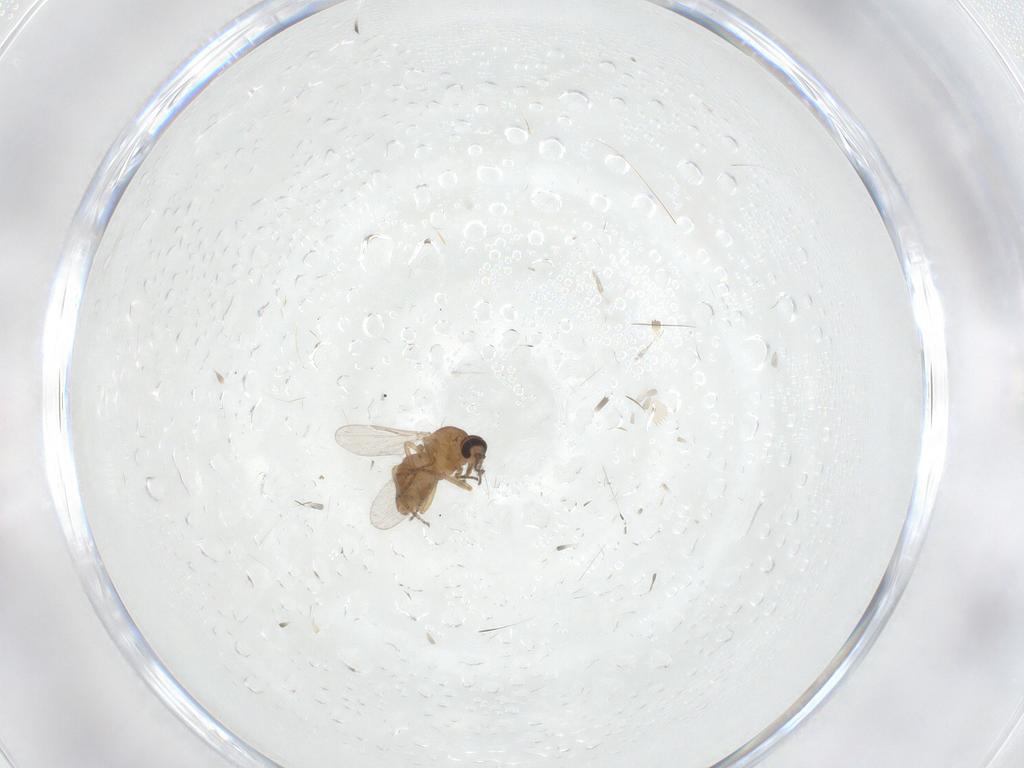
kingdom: Animalia
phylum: Arthropoda
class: Insecta
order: Diptera
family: Ceratopogonidae
